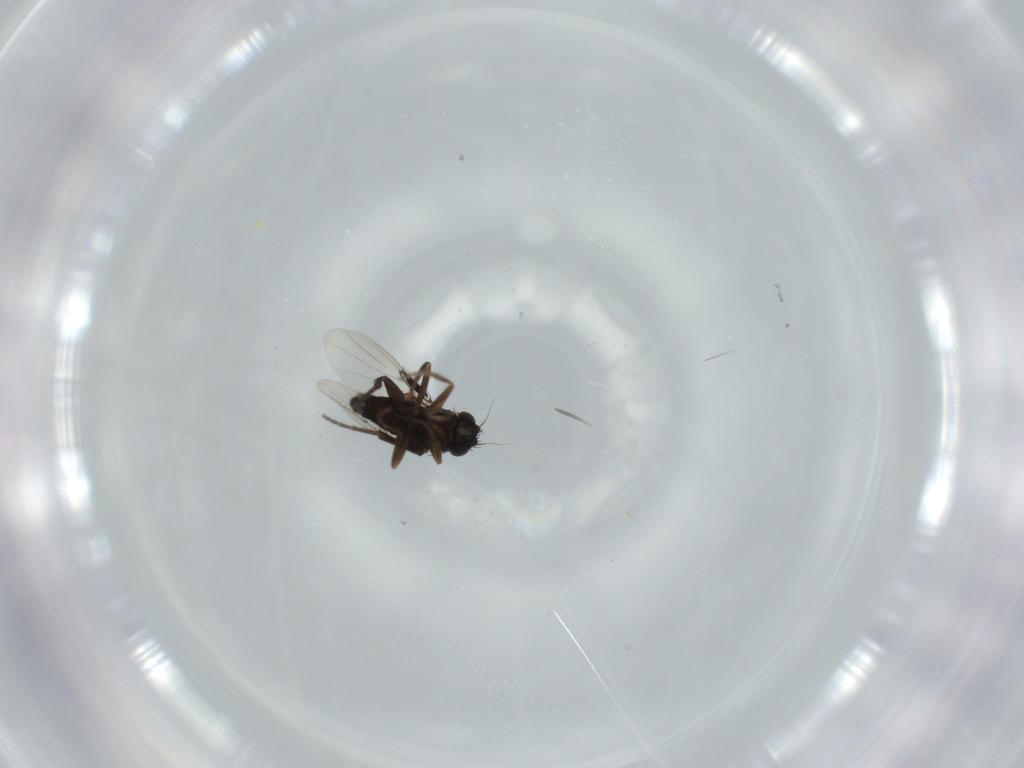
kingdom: Animalia
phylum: Arthropoda
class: Insecta
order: Diptera
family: Phoridae
